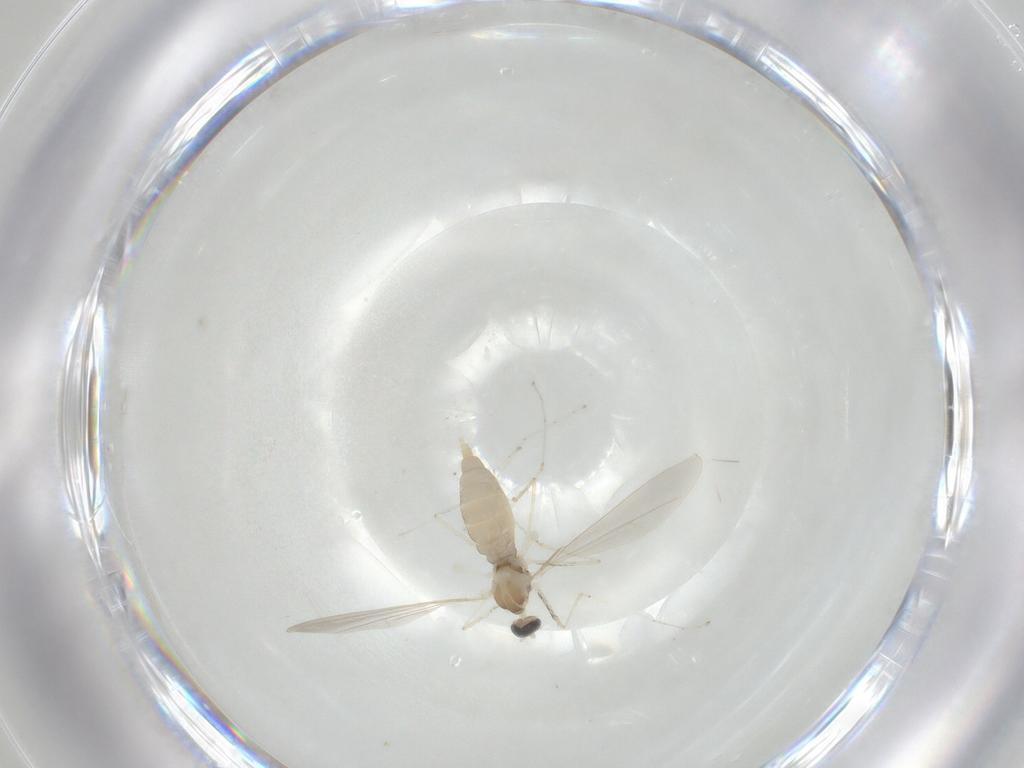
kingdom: Animalia
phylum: Arthropoda
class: Insecta
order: Diptera
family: Cecidomyiidae
